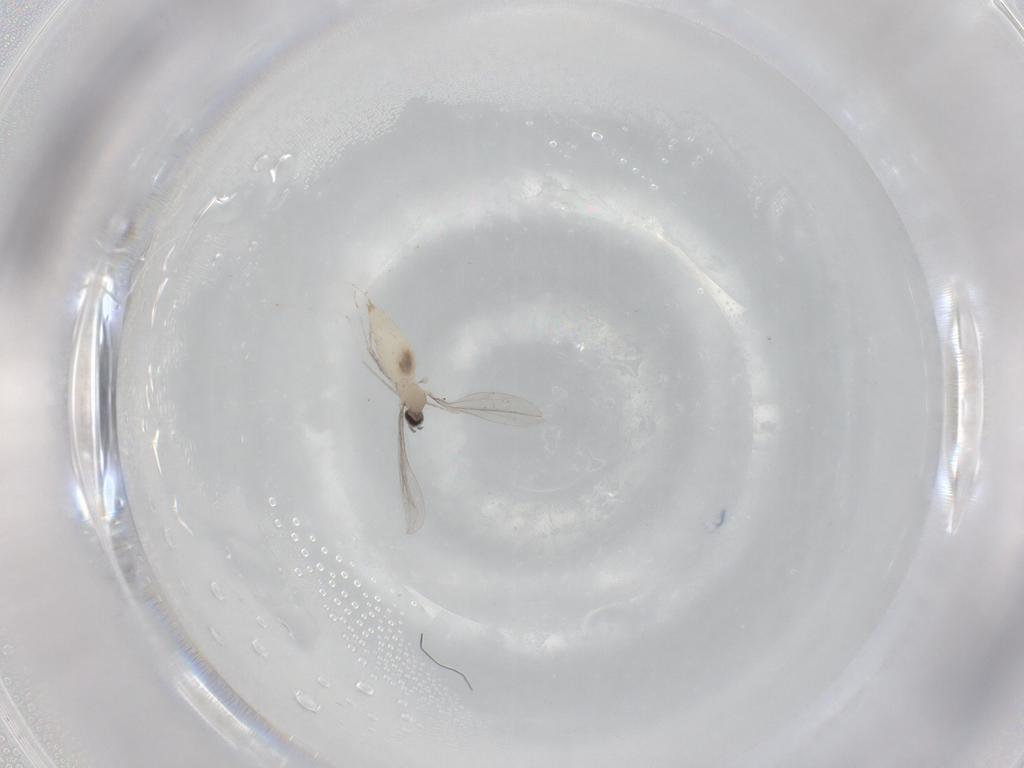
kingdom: Animalia
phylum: Arthropoda
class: Insecta
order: Diptera
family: Cecidomyiidae
